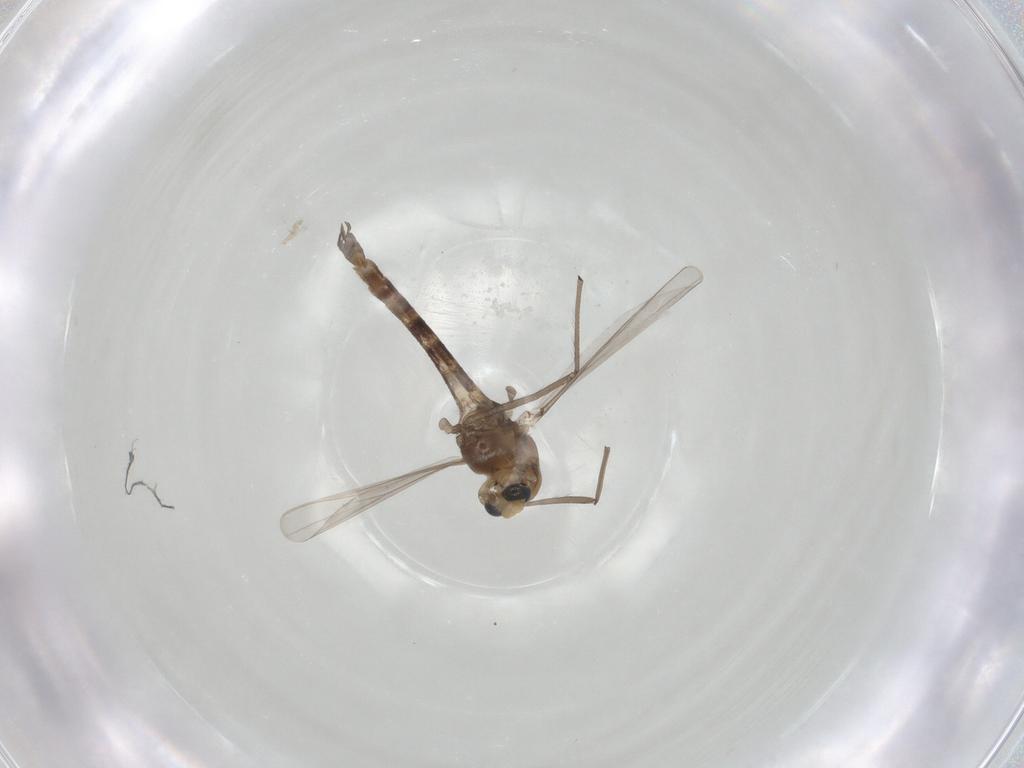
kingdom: Animalia
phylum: Arthropoda
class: Insecta
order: Diptera
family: Chironomidae
